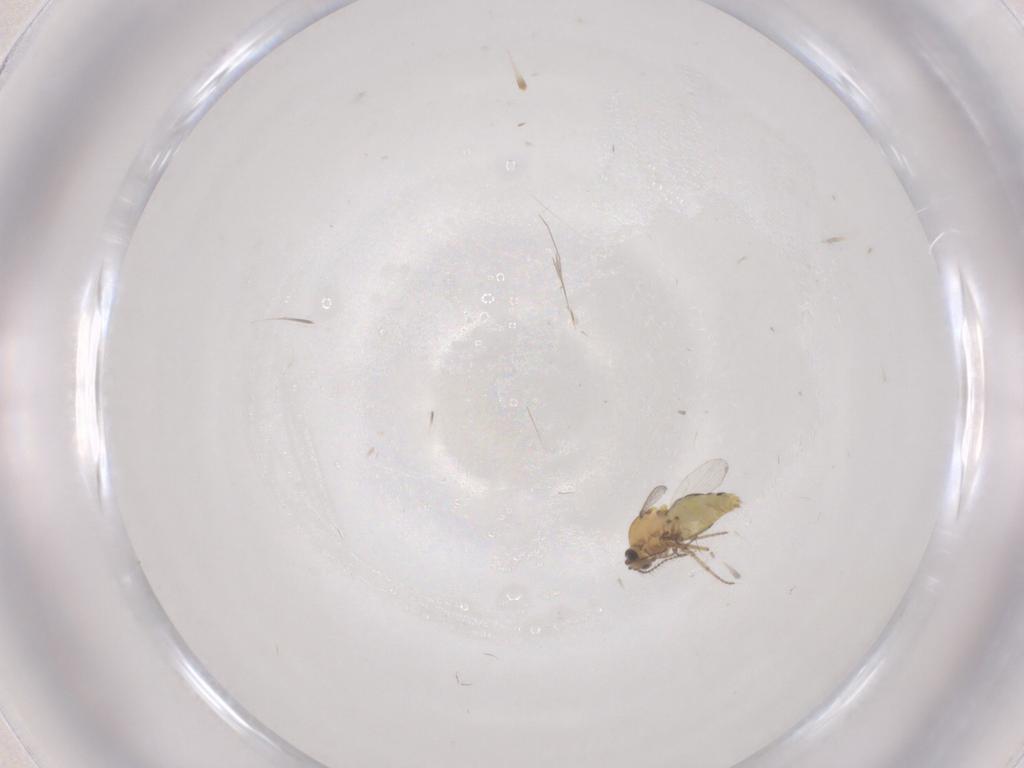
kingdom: Animalia
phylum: Arthropoda
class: Insecta
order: Diptera
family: Ceratopogonidae
